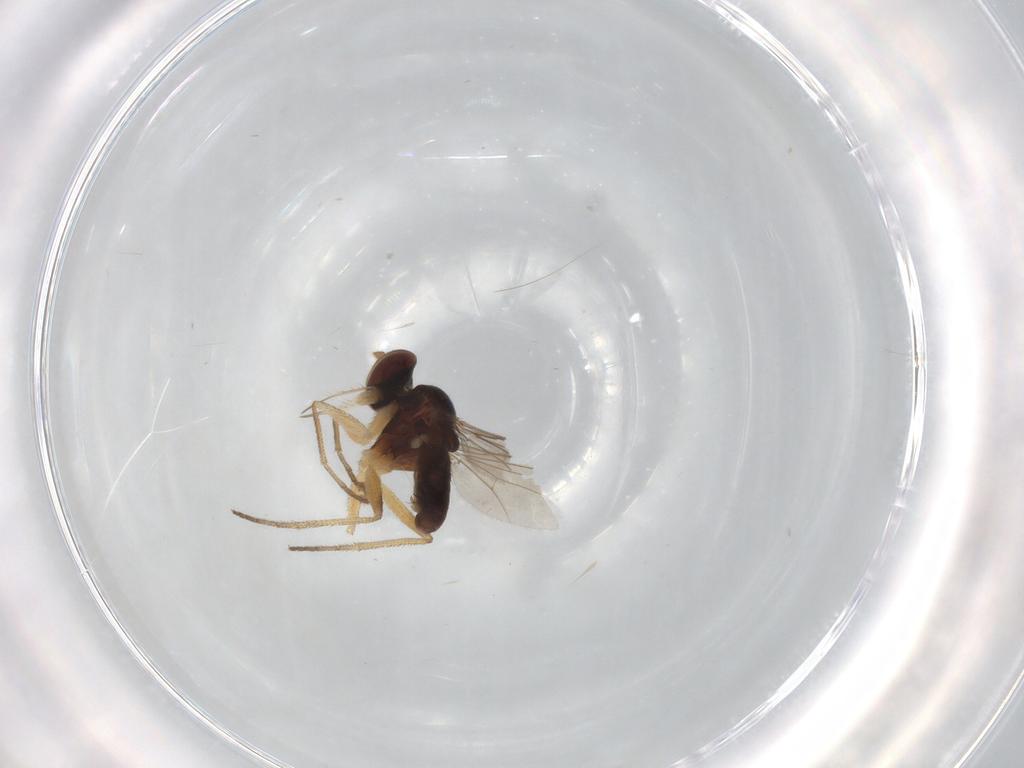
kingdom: Animalia
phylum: Arthropoda
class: Insecta
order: Diptera
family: Dolichopodidae
